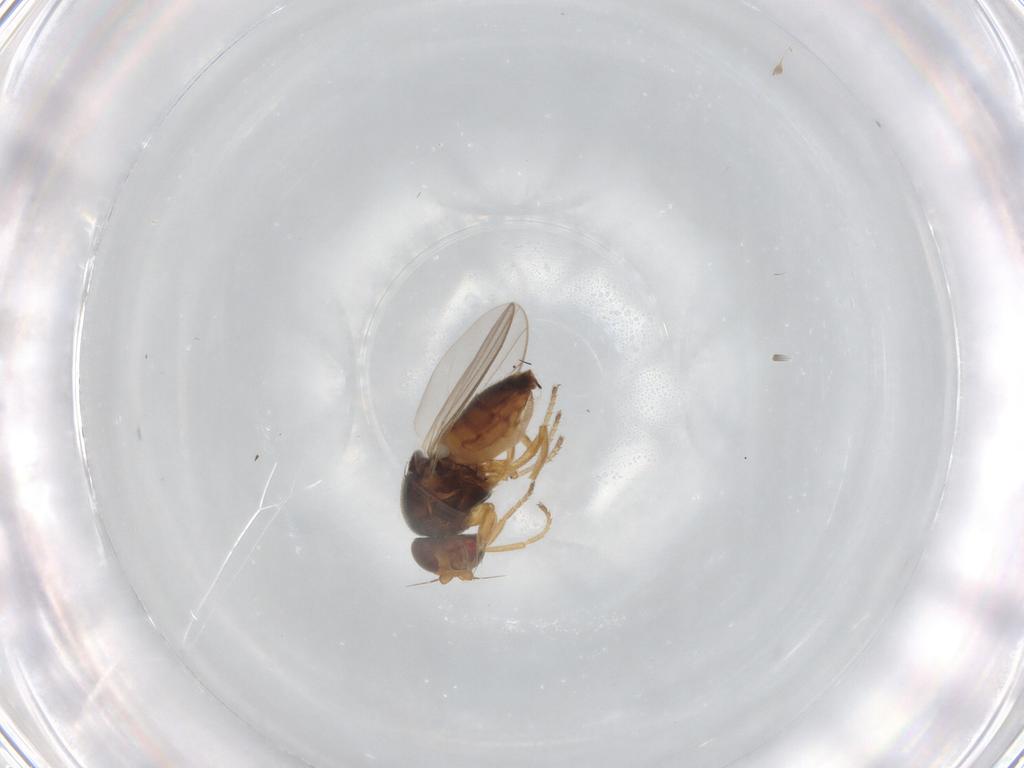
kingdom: Animalia
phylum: Arthropoda
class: Insecta
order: Diptera
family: Chloropidae
